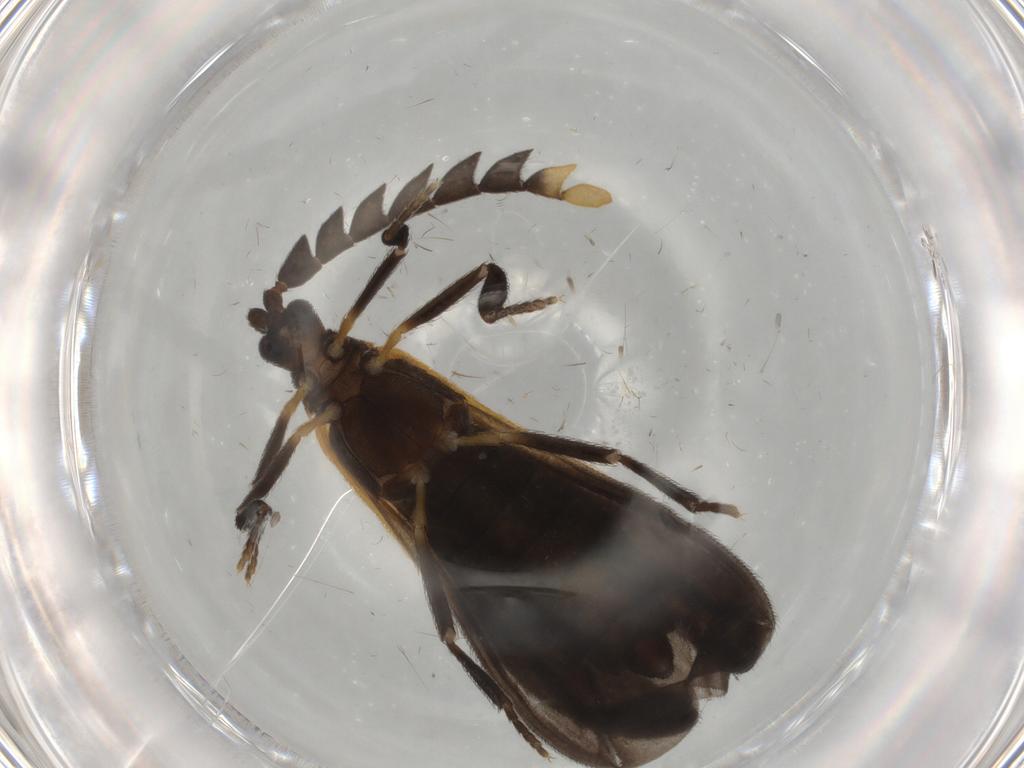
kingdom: Animalia
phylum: Arthropoda
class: Insecta
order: Coleoptera
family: Lycidae
